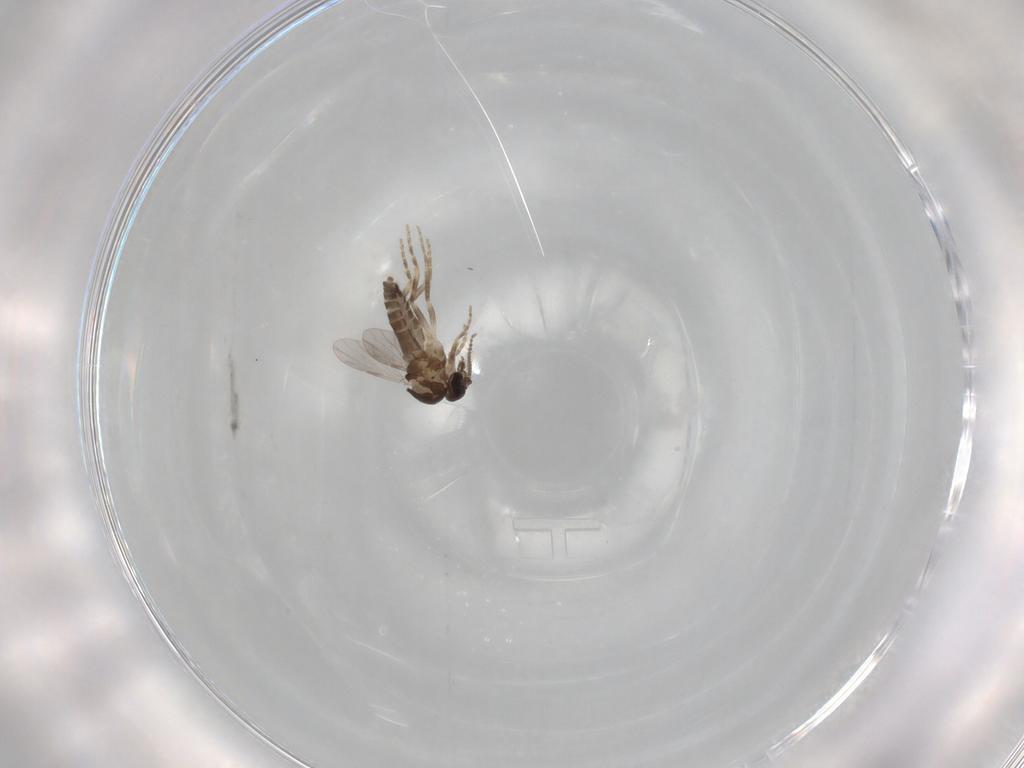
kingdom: Animalia
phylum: Arthropoda
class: Insecta
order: Diptera
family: Ceratopogonidae
